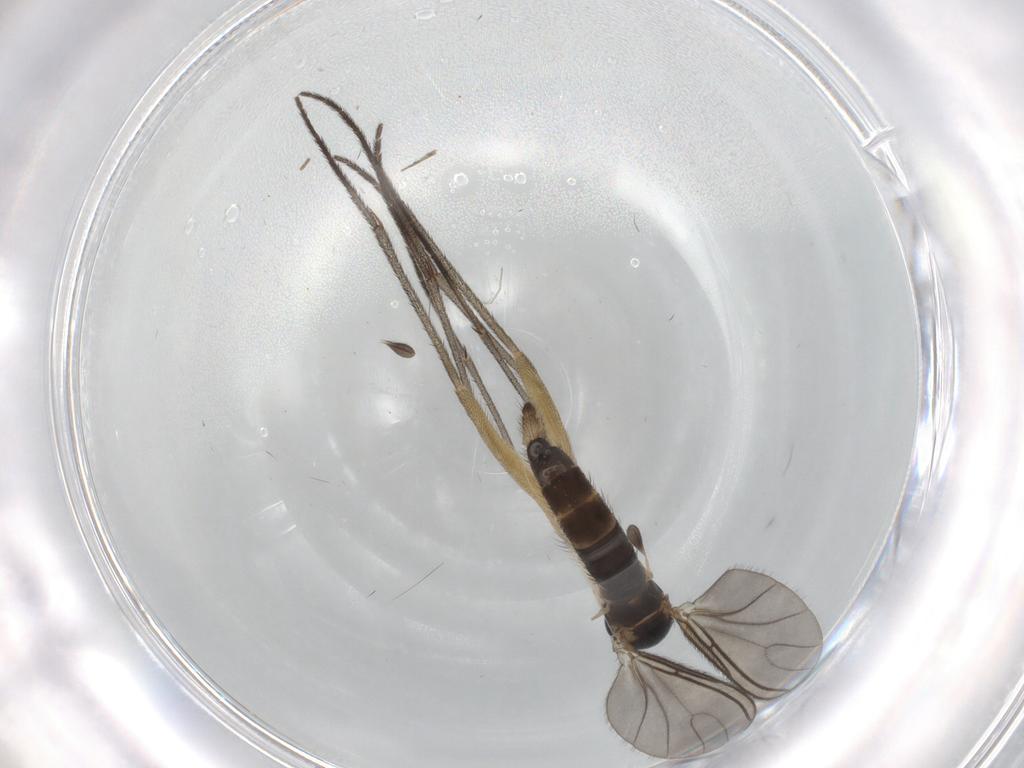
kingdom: Animalia
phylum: Arthropoda
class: Insecta
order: Diptera
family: Sciaridae
